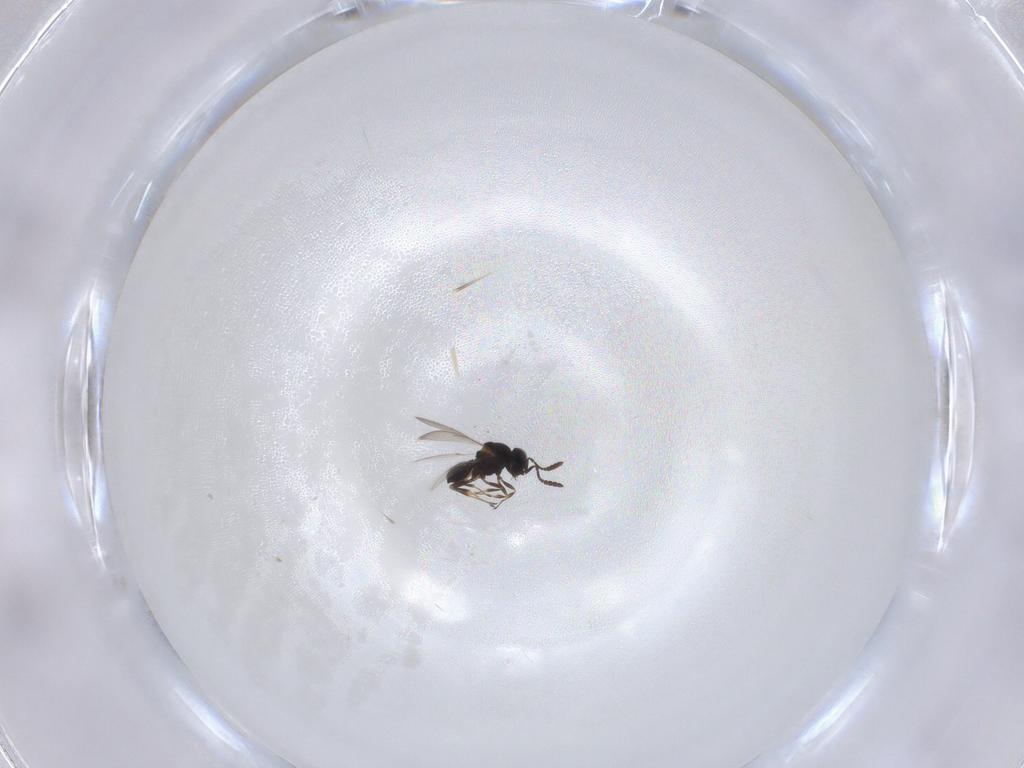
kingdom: Animalia
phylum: Arthropoda
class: Insecta
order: Hymenoptera
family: Scelionidae
